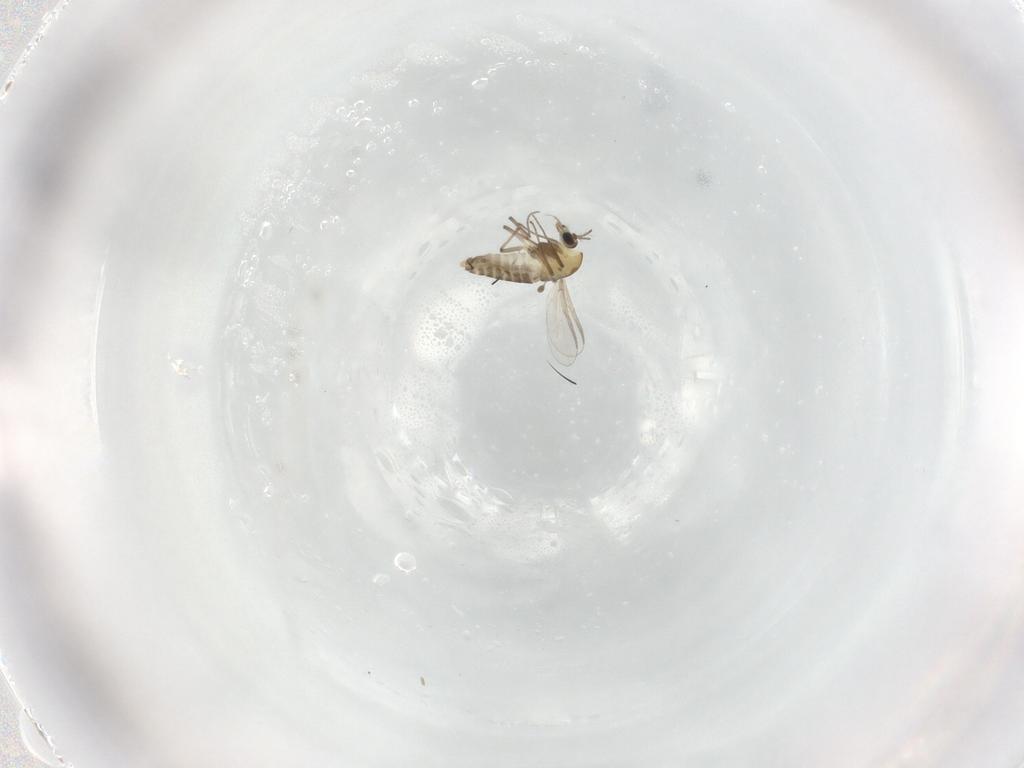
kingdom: Animalia
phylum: Arthropoda
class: Insecta
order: Diptera
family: Chironomidae
